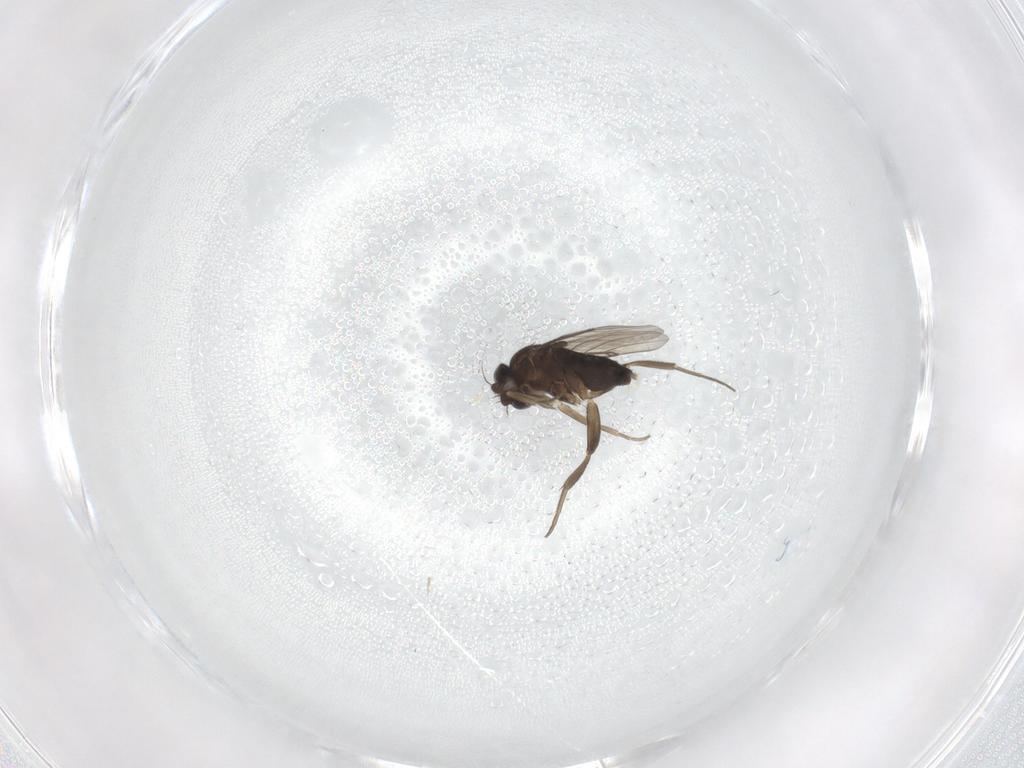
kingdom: Animalia
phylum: Arthropoda
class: Insecta
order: Diptera
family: Phoridae
